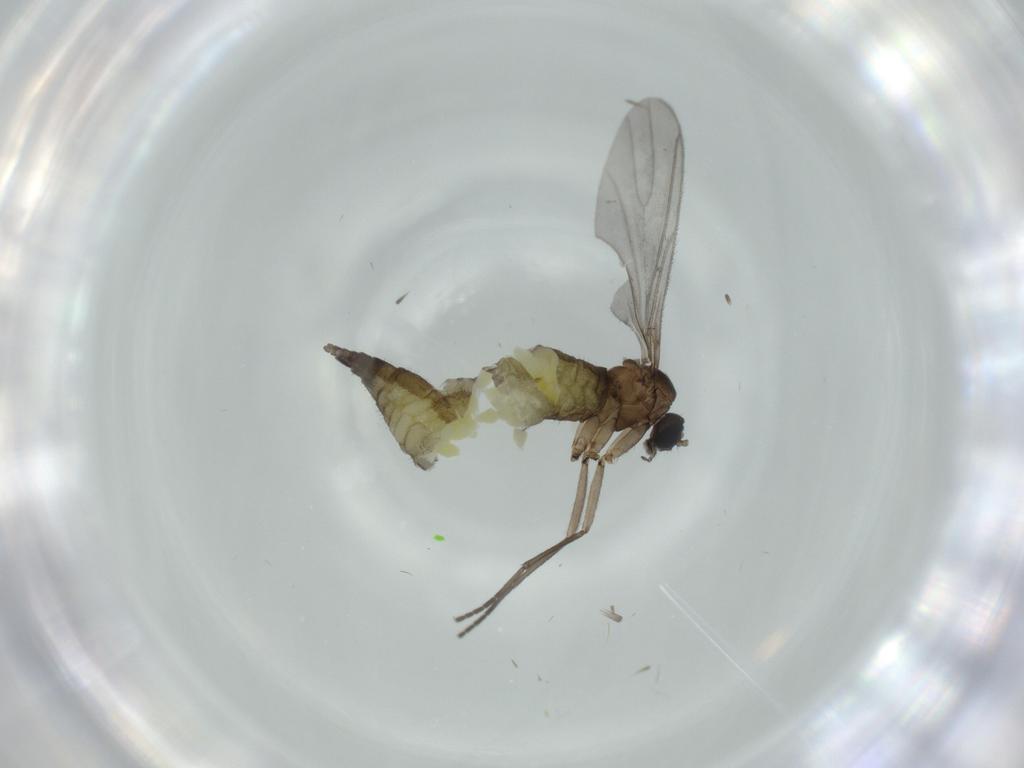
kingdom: Animalia
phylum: Arthropoda
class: Insecta
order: Diptera
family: Sciaridae
